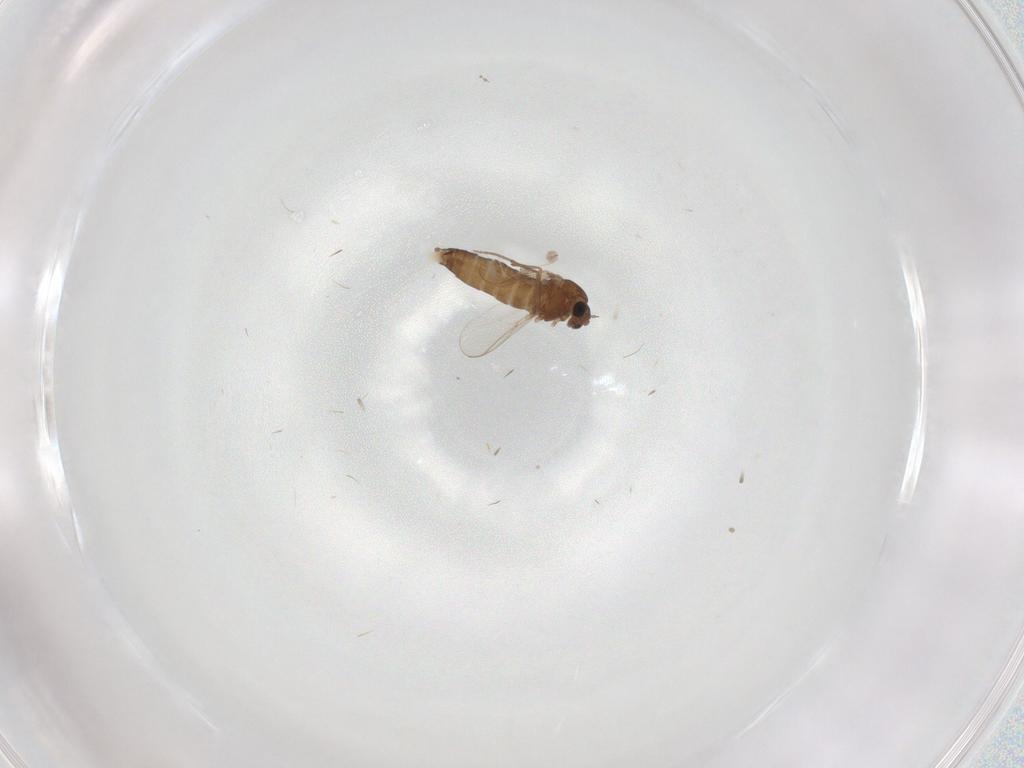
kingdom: Animalia
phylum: Arthropoda
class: Insecta
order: Diptera
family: Chironomidae
